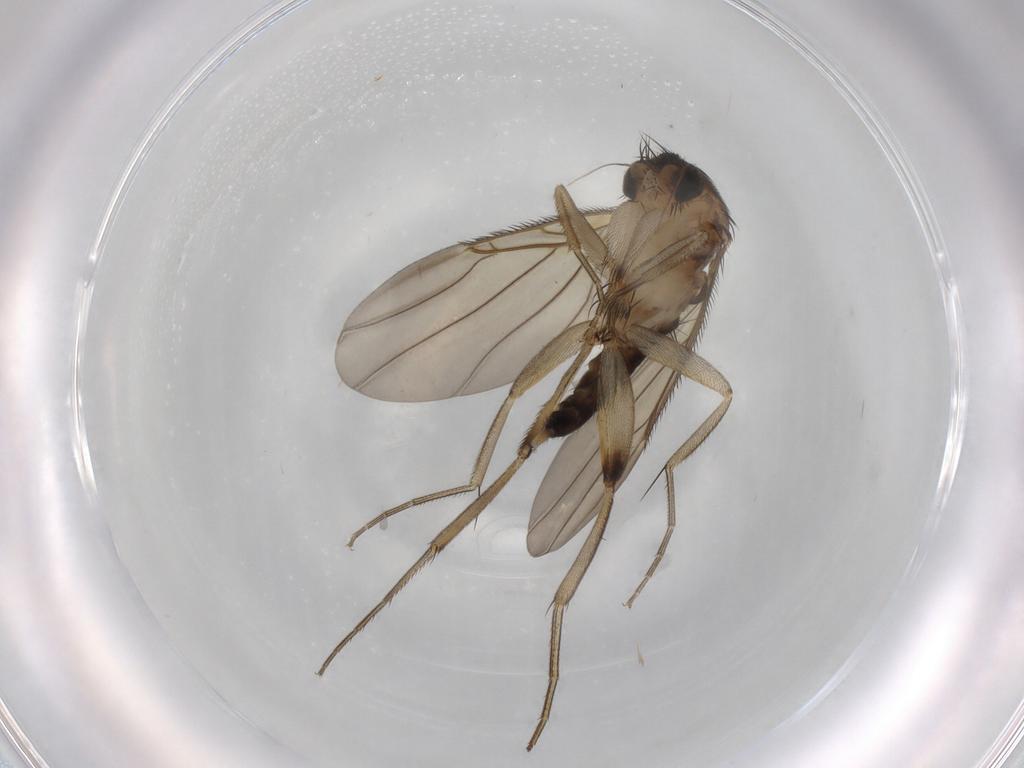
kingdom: Animalia
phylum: Arthropoda
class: Insecta
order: Diptera
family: Phoridae
